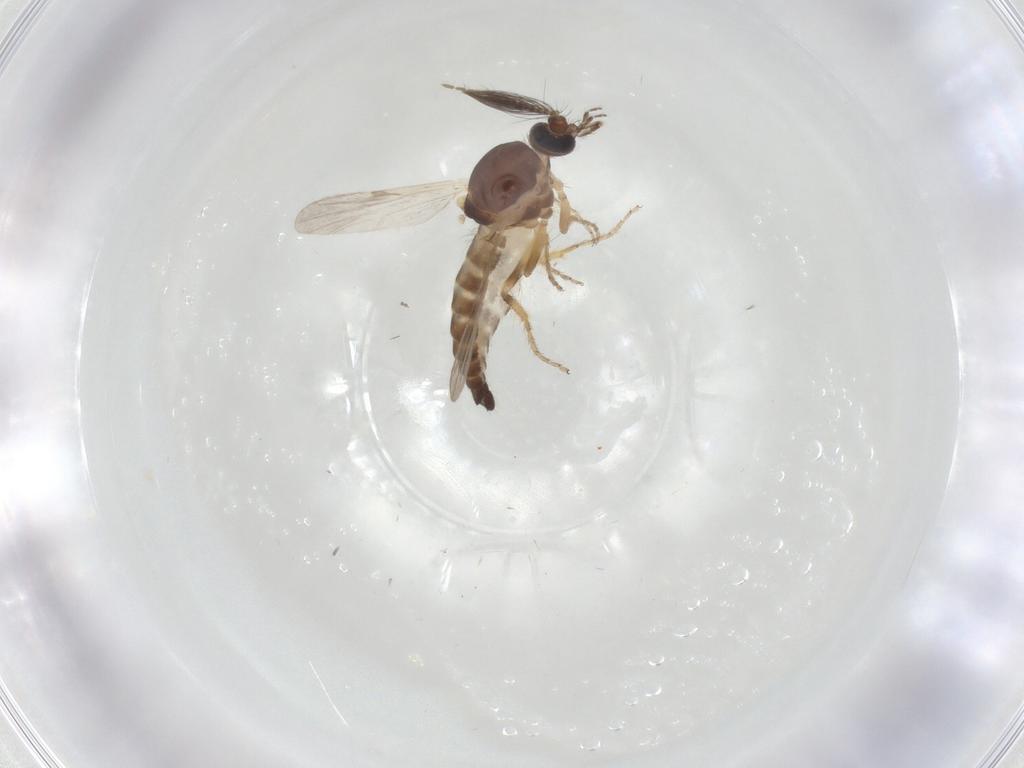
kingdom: Animalia
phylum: Arthropoda
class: Insecta
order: Diptera
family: Ceratopogonidae
